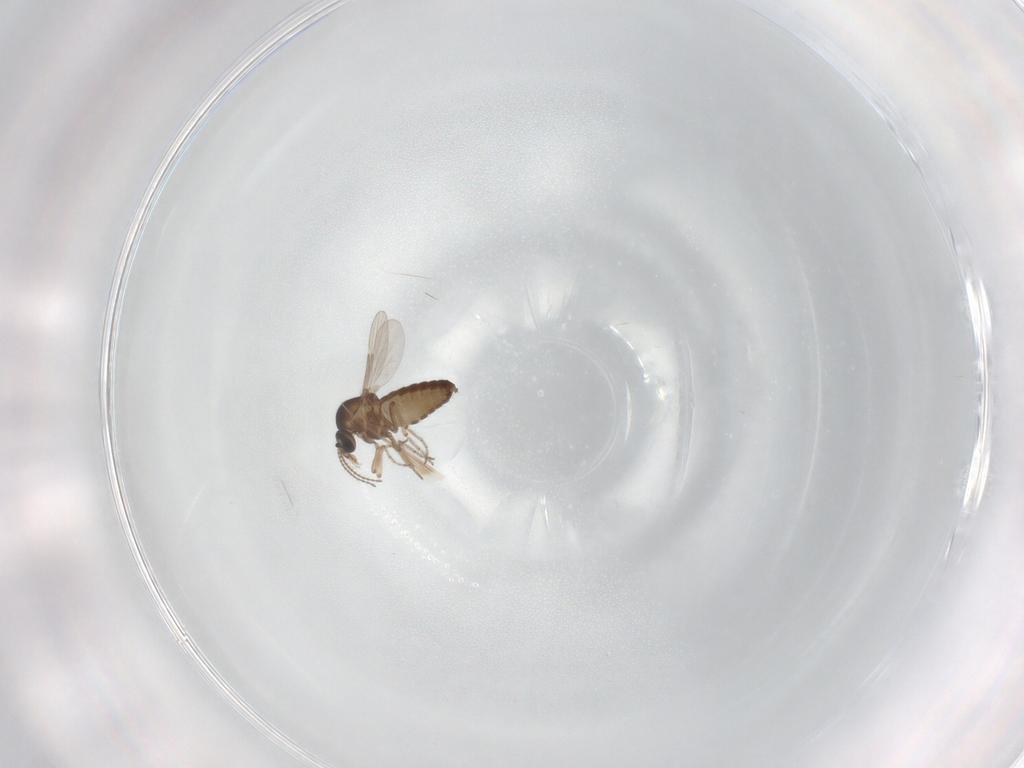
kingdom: Animalia
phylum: Arthropoda
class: Insecta
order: Diptera
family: Ceratopogonidae
